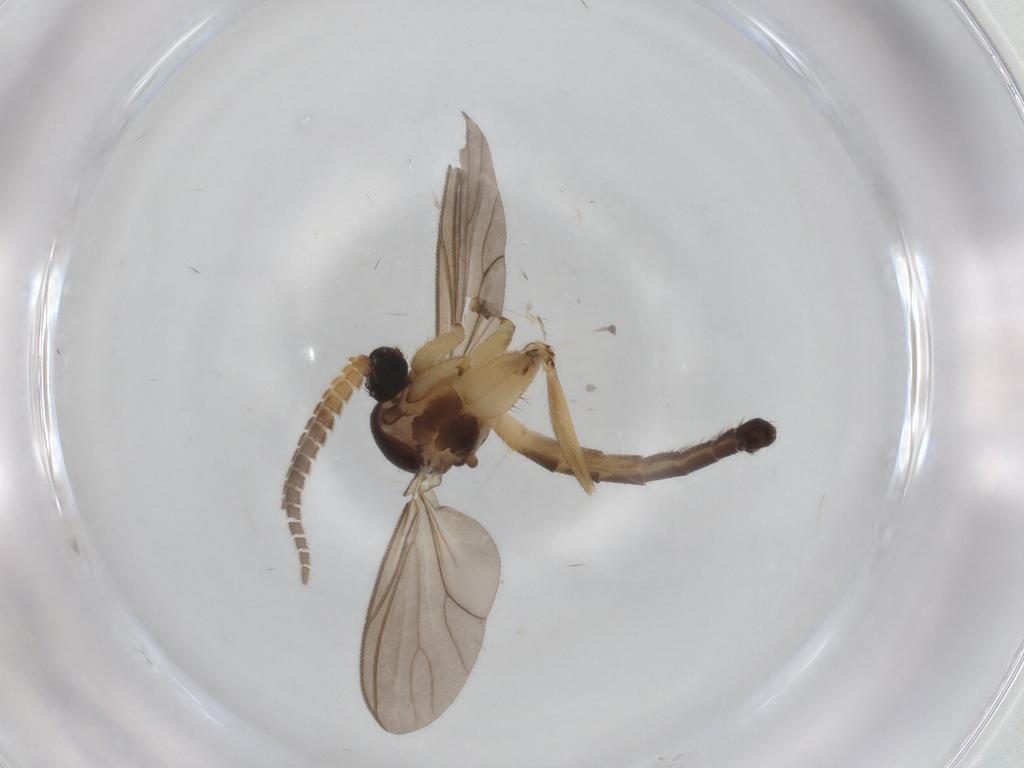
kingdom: Animalia
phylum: Arthropoda
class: Insecta
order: Diptera
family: Mycetophilidae
